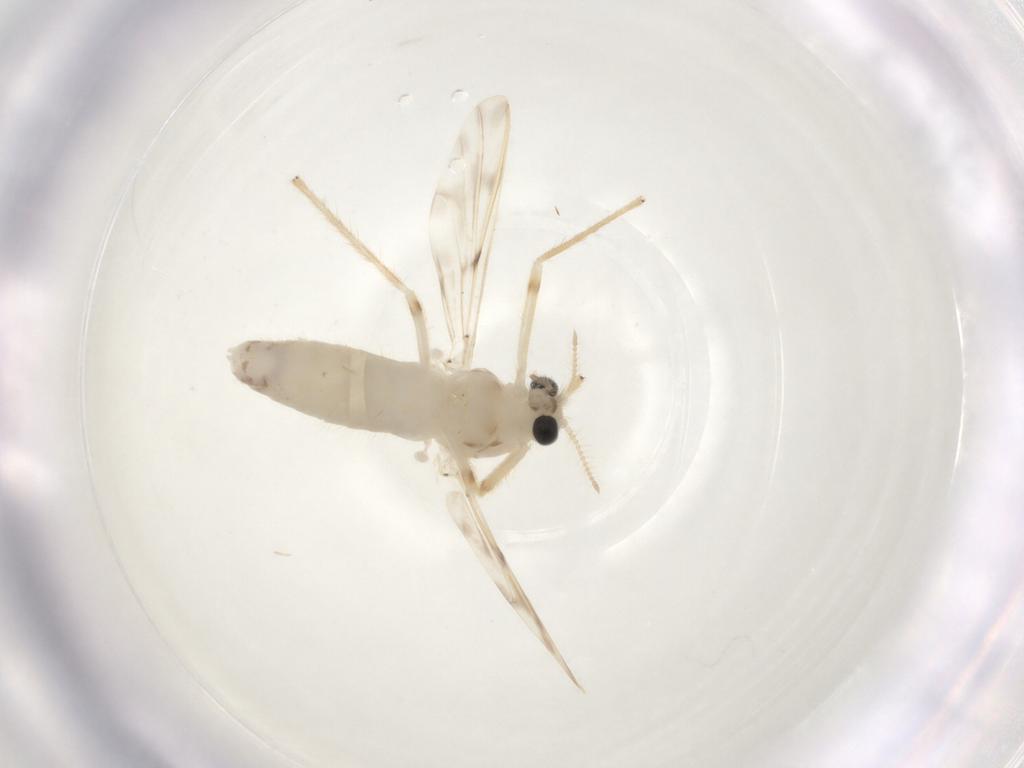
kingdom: Animalia
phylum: Arthropoda
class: Insecta
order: Diptera
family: Chironomidae
